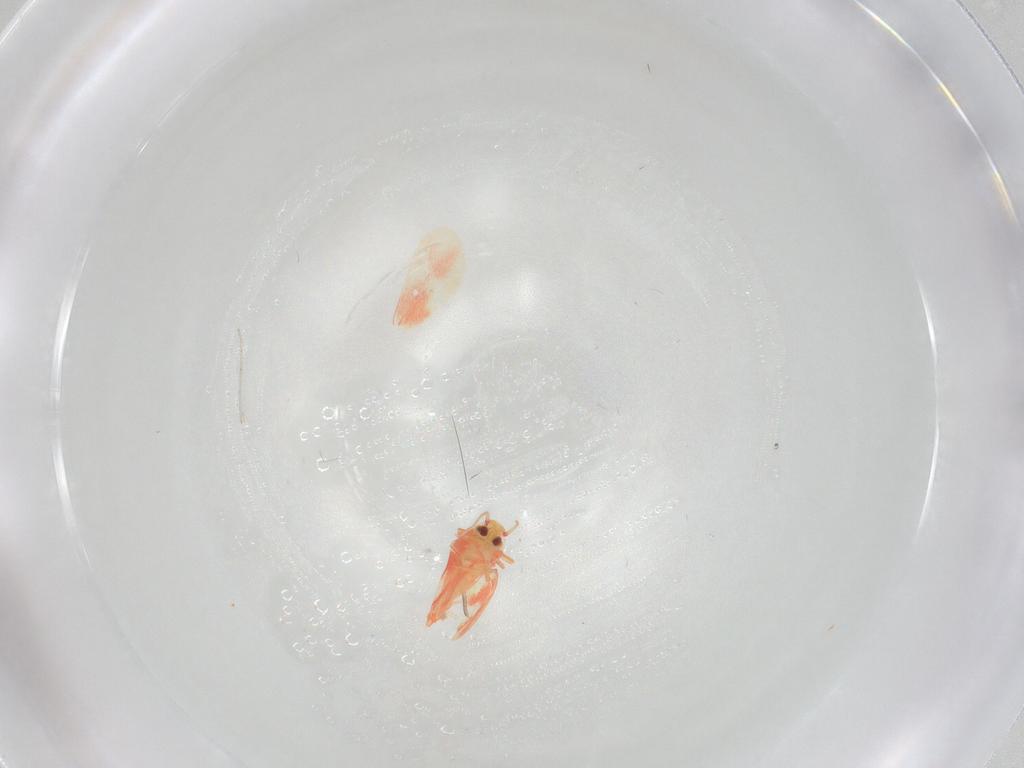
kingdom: Animalia
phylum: Arthropoda
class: Insecta
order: Hemiptera
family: Aleyrodidae
